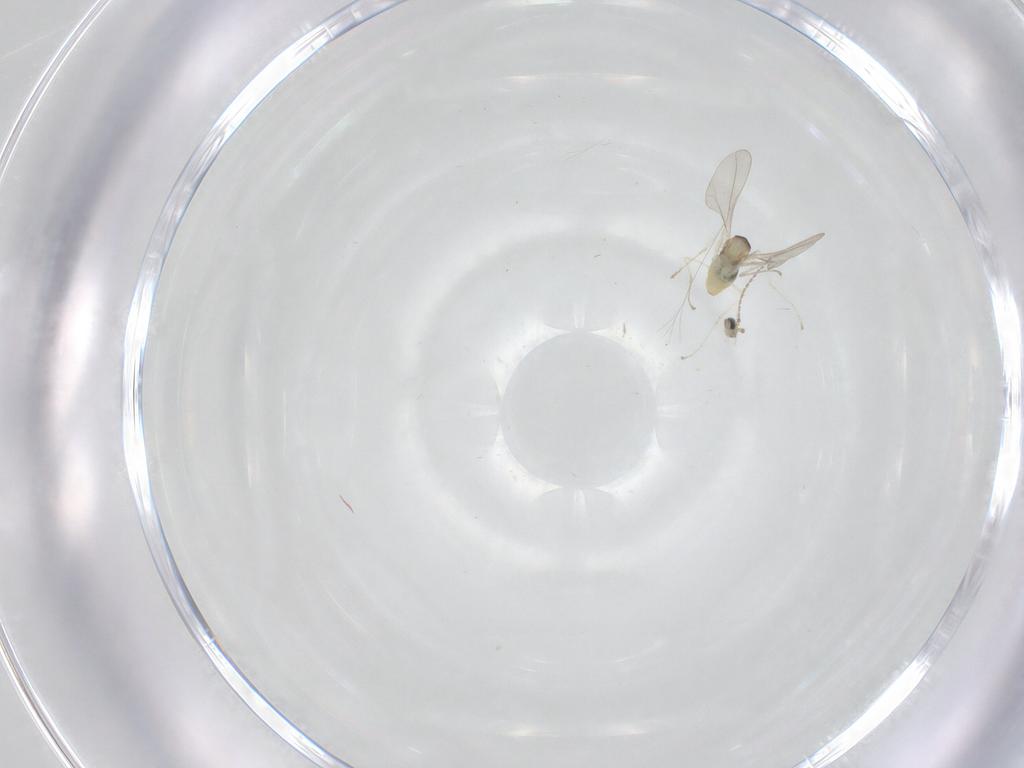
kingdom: Animalia
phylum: Arthropoda
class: Insecta
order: Diptera
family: Cecidomyiidae
